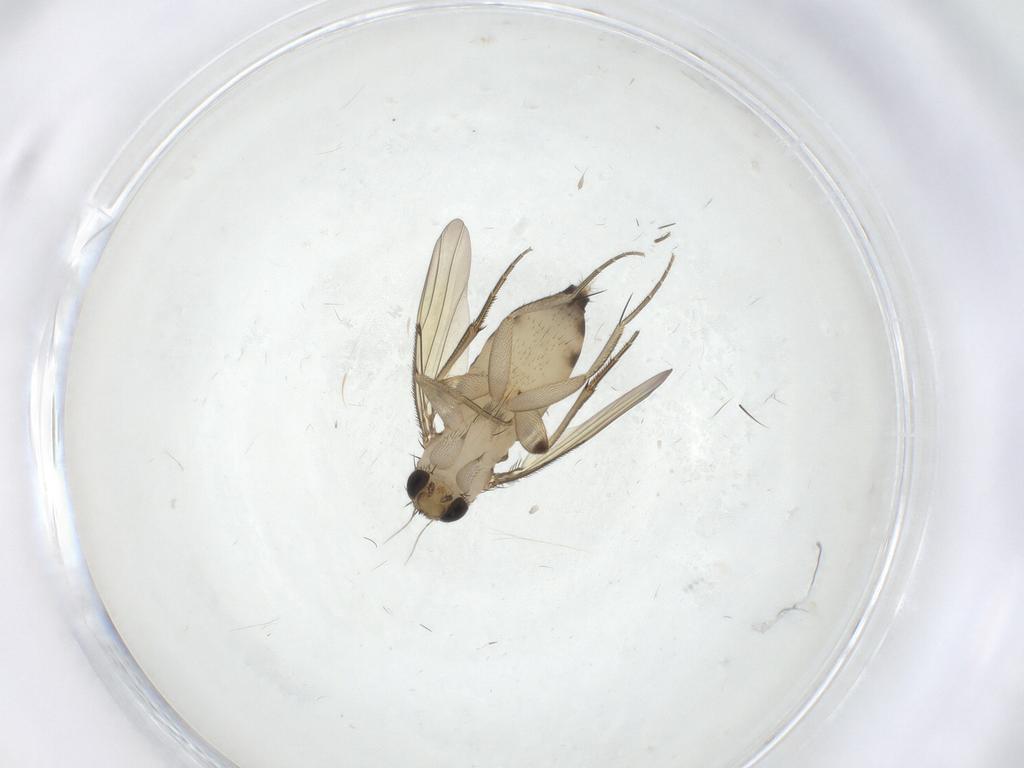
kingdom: Animalia
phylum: Arthropoda
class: Insecta
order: Diptera
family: Phoridae
